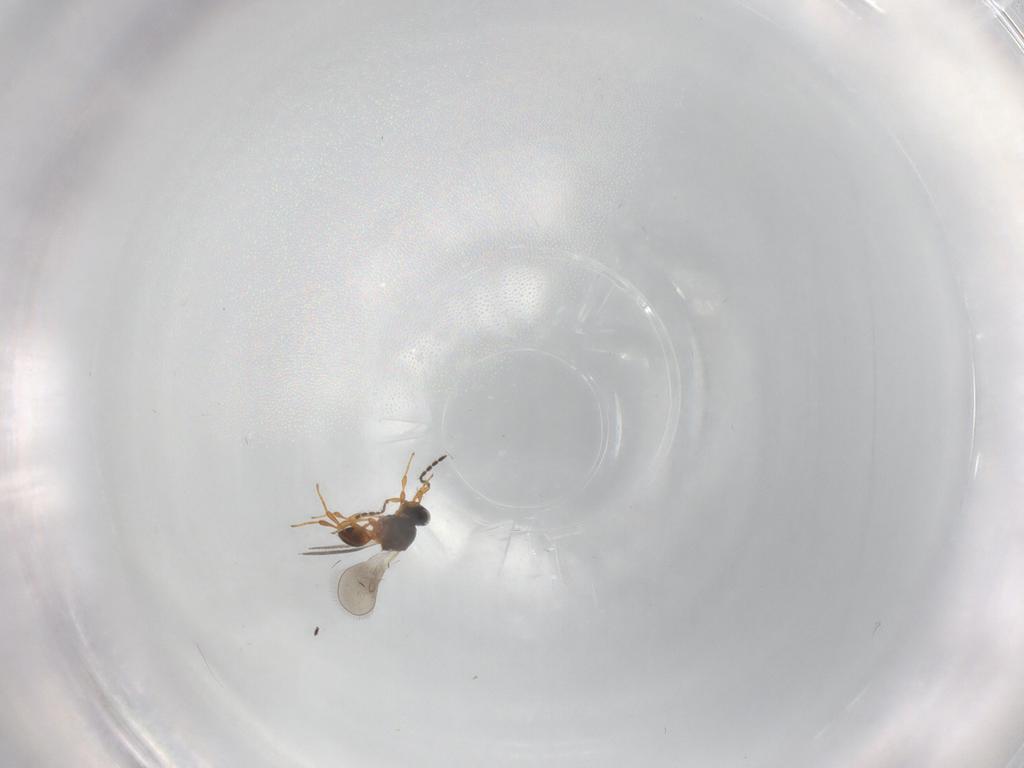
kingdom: Animalia
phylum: Arthropoda
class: Insecta
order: Hymenoptera
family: Platygastridae
